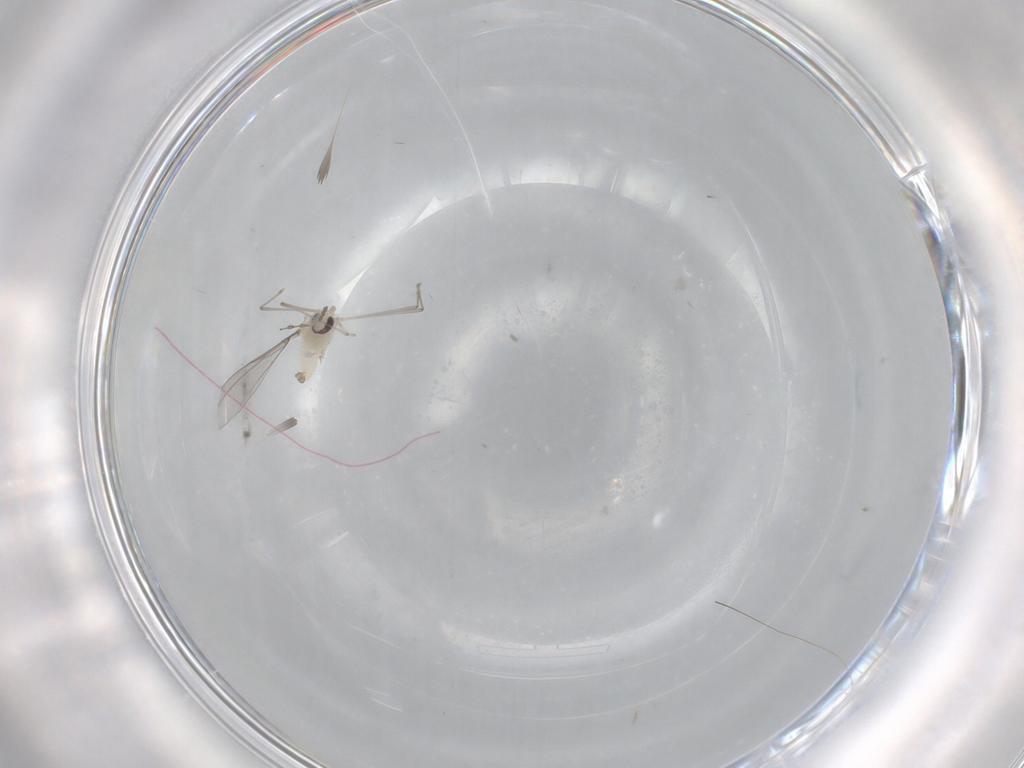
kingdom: Animalia
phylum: Arthropoda
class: Insecta
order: Diptera
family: Cecidomyiidae
